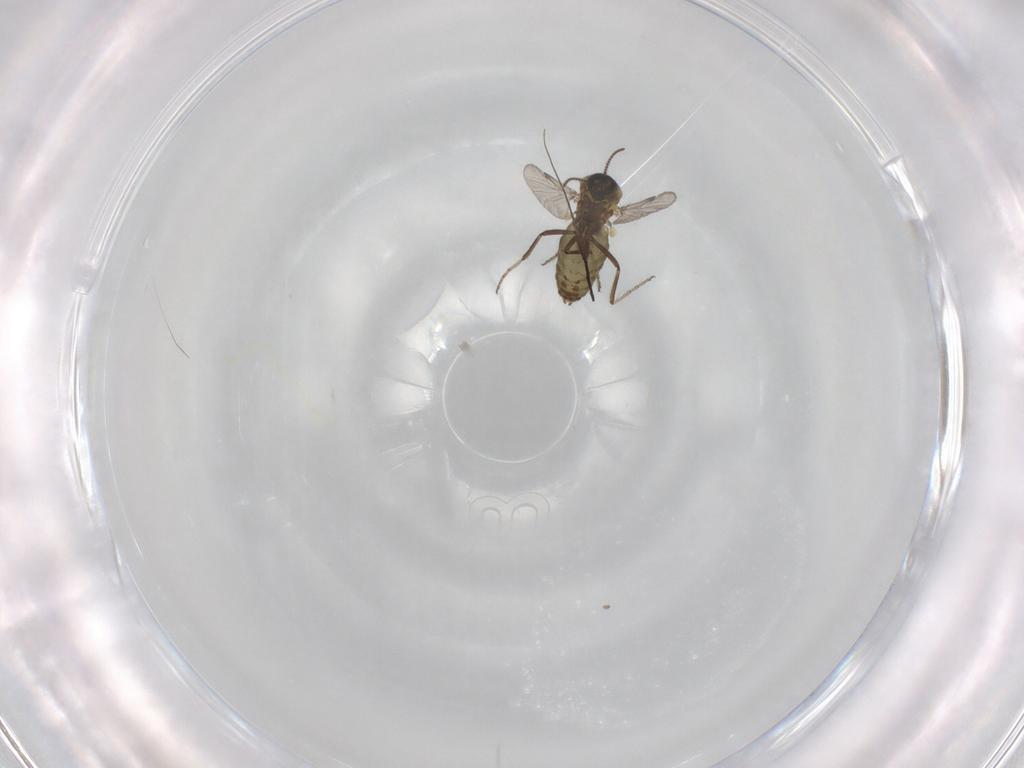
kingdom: Animalia
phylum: Arthropoda
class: Insecta
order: Diptera
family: Ceratopogonidae
